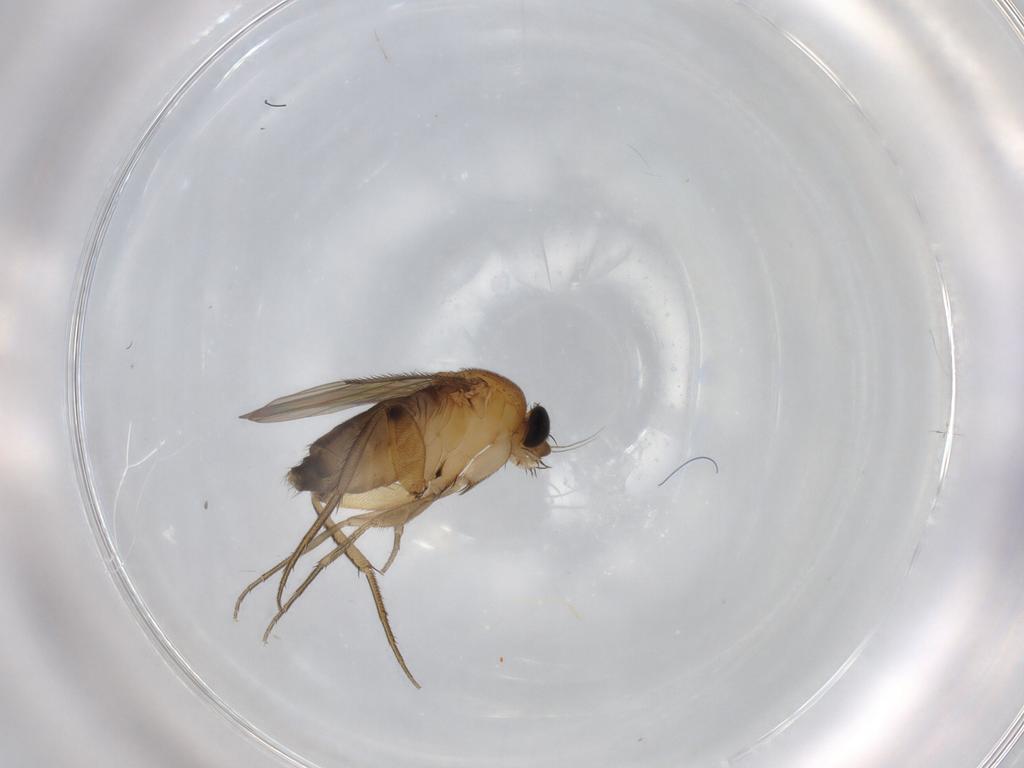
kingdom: Animalia
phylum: Arthropoda
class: Insecta
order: Diptera
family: Phoridae
